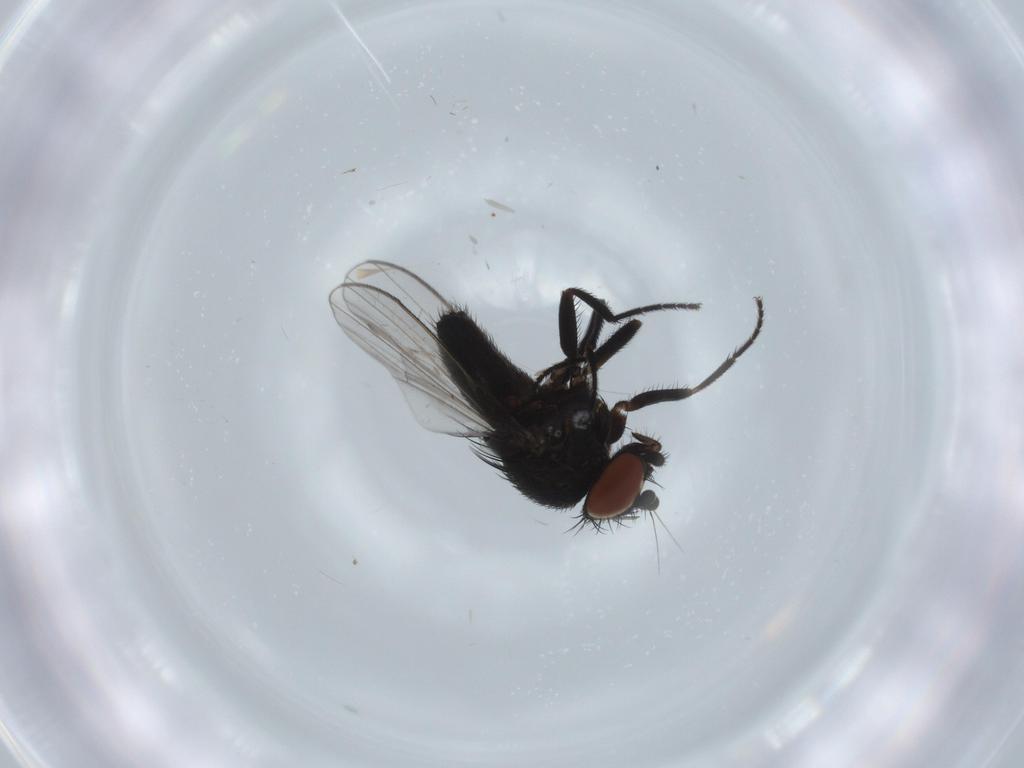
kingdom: Animalia
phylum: Arthropoda
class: Insecta
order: Diptera
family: Milichiidae
